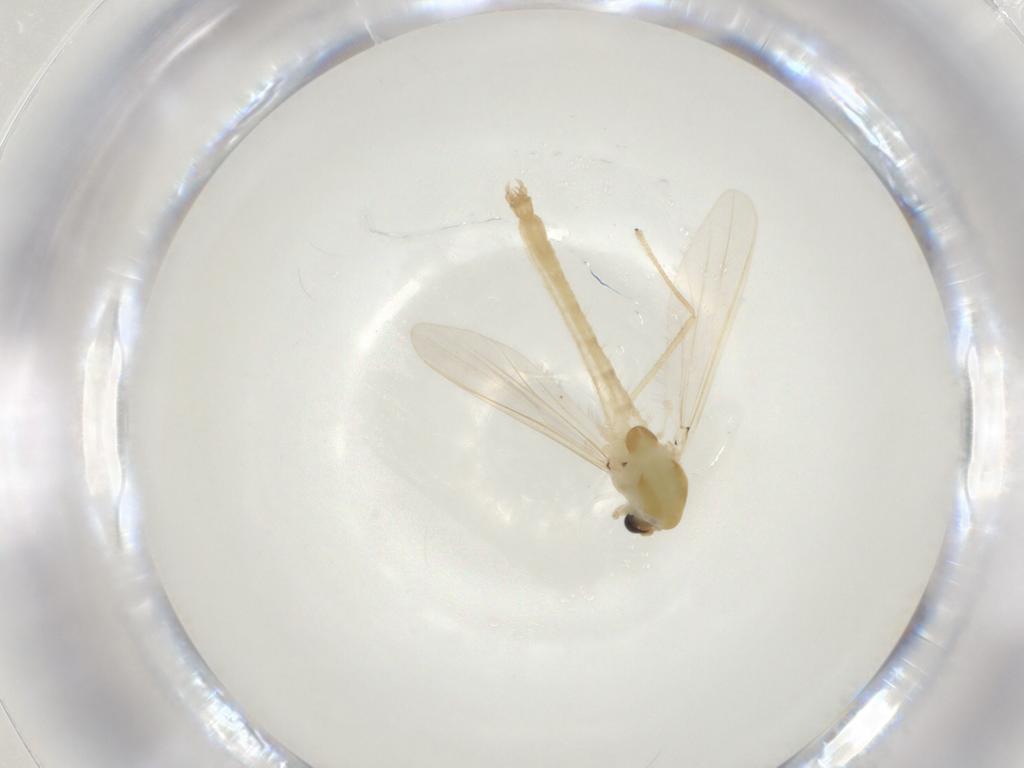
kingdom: Animalia
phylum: Arthropoda
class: Insecta
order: Diptera
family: Chironomidae
